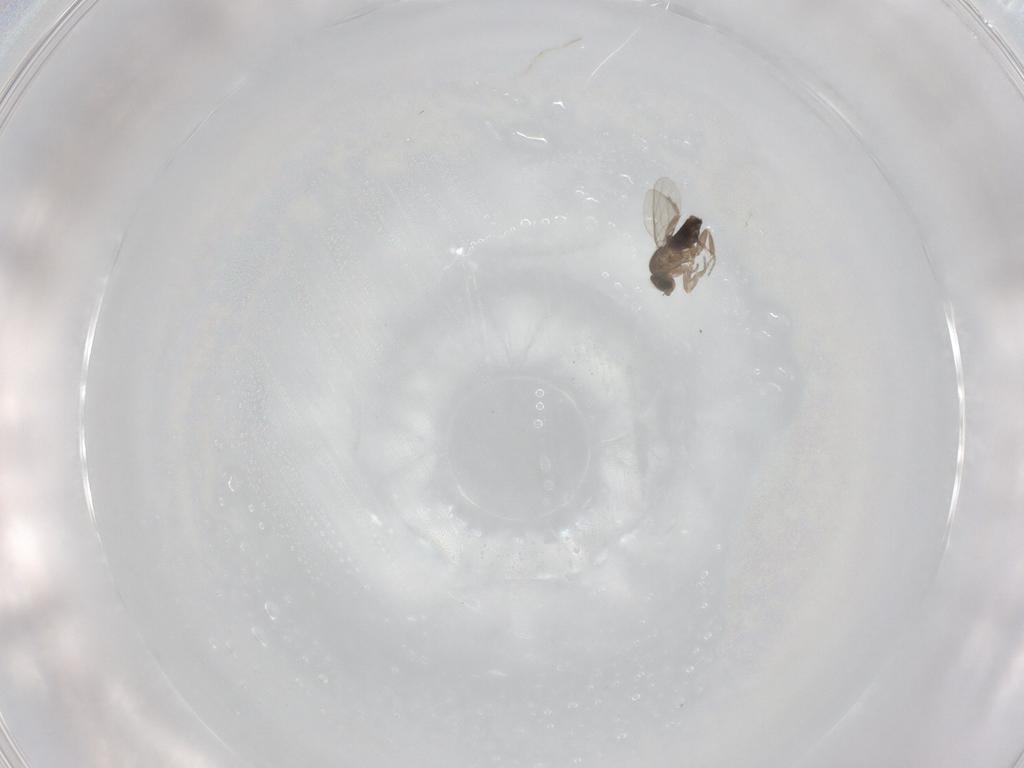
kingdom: Animalia
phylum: Arthropoda
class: Insecta
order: Diptera
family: Phoridae
